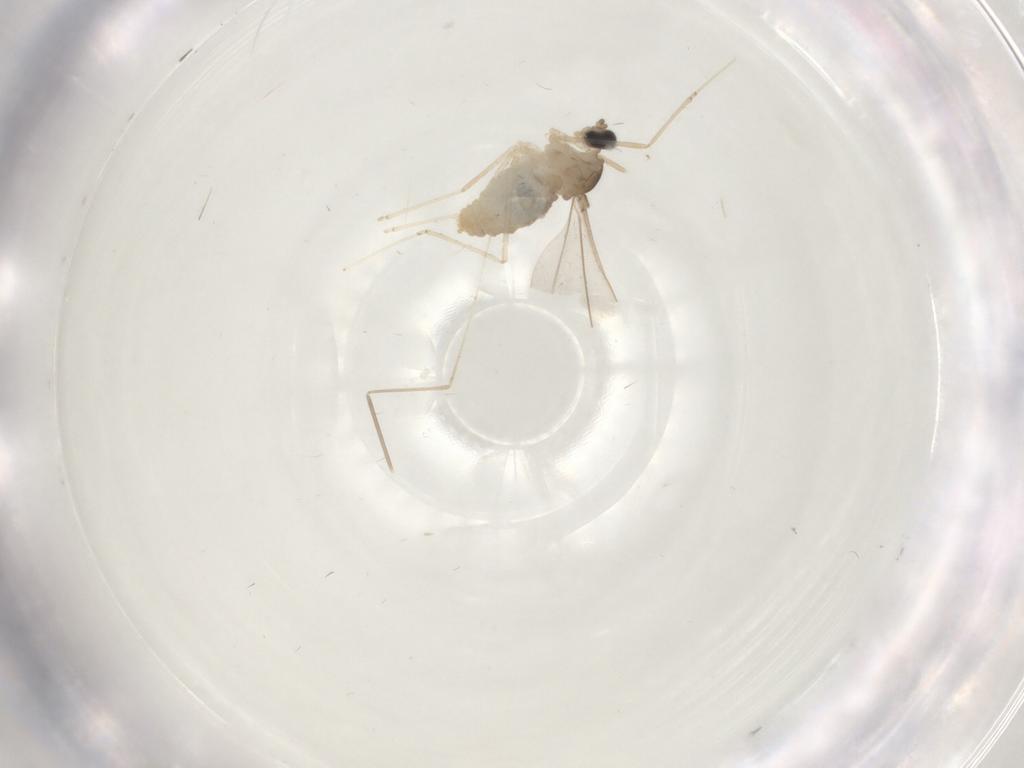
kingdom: Animalia
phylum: Arthropoda
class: Insecta
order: Diptera
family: Cecidomyiidae
